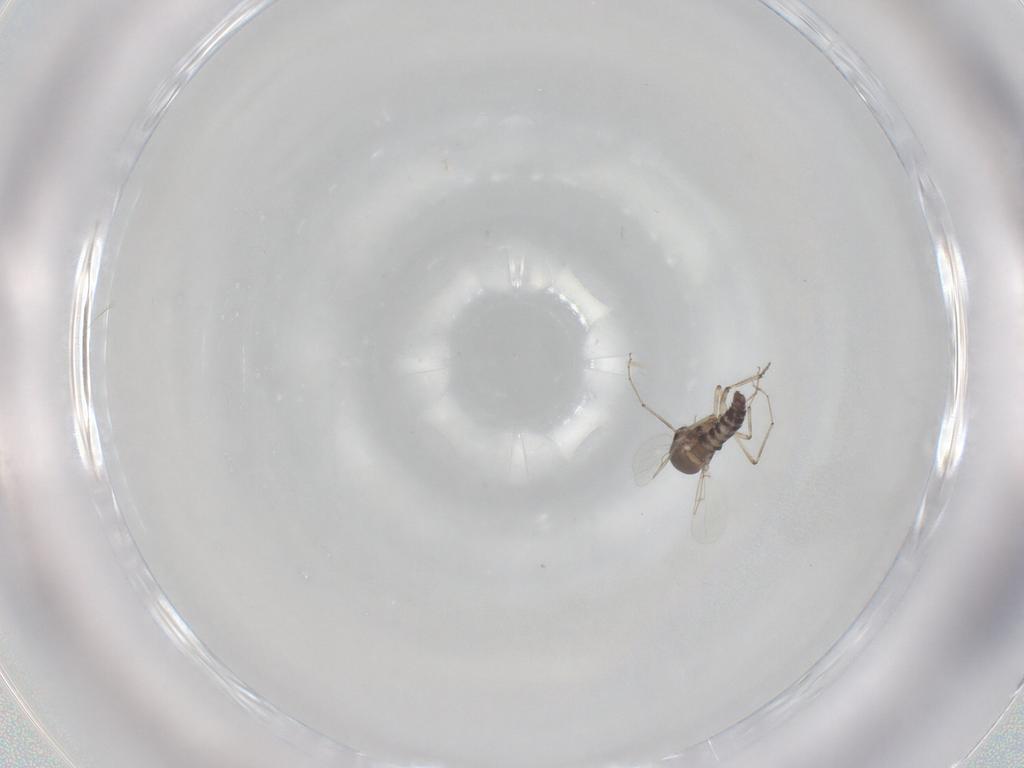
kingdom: Animalia
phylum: Arthropoda
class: Insecta
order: Diptera
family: Ceratopogonidae
